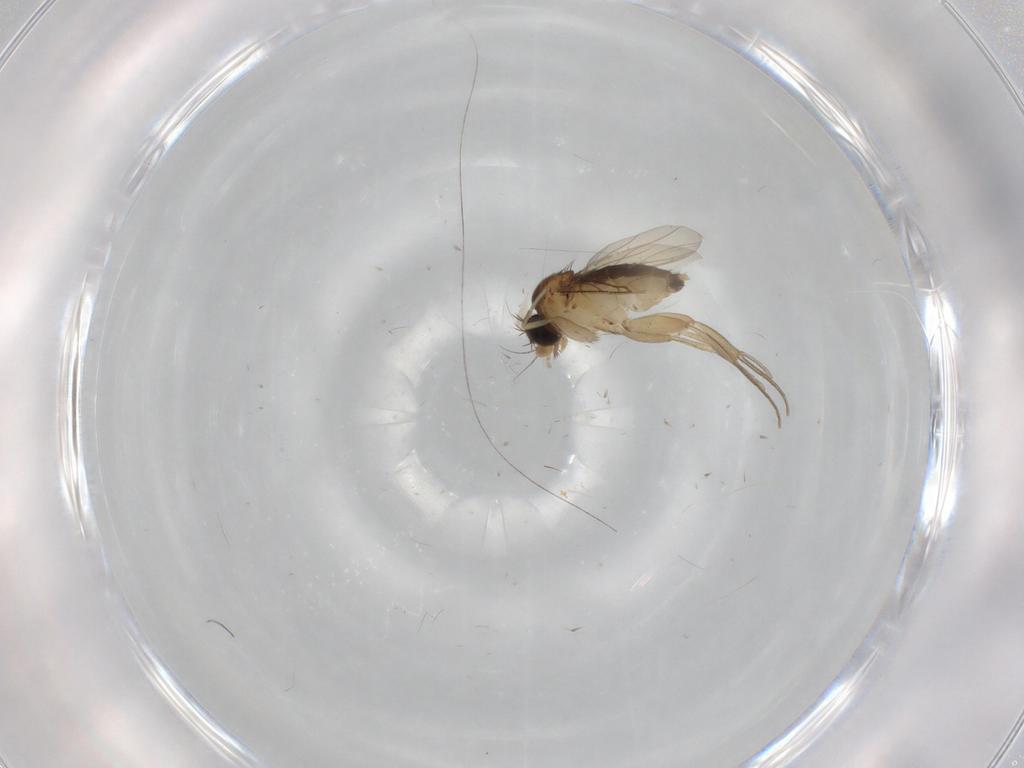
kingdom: Animalia
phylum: Arthropoda
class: Insecta
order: Diptera
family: Phoridae
